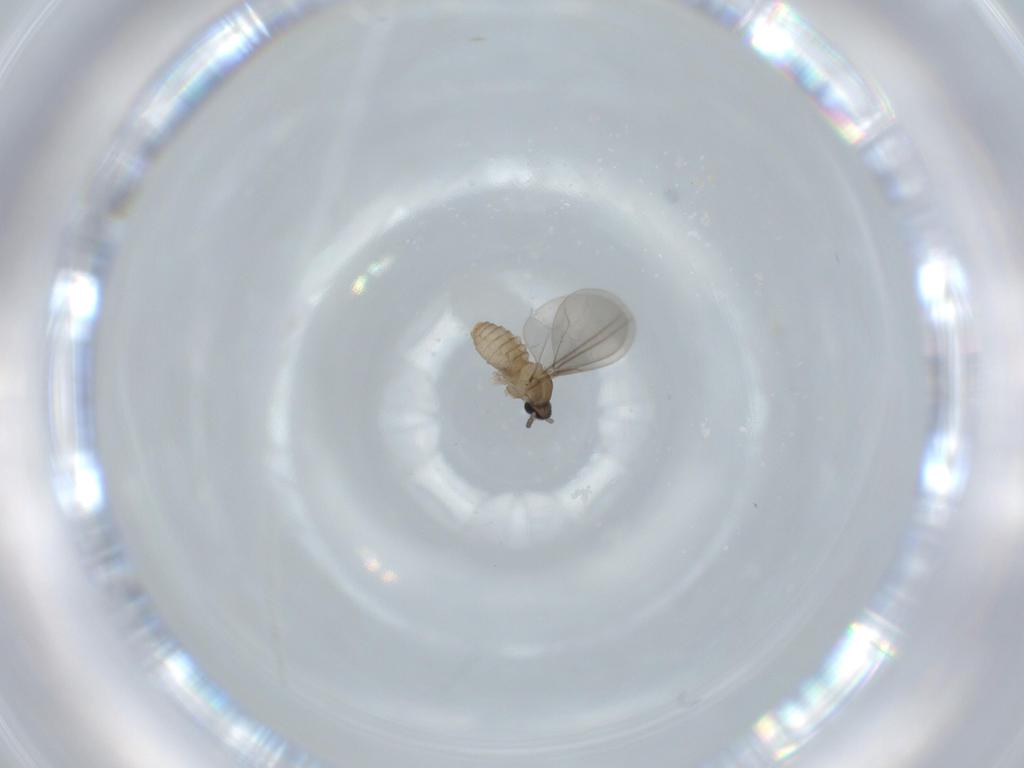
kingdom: Animalia
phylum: Arthropoda
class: Insecta
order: Diptera
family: Cecidomyiidae
